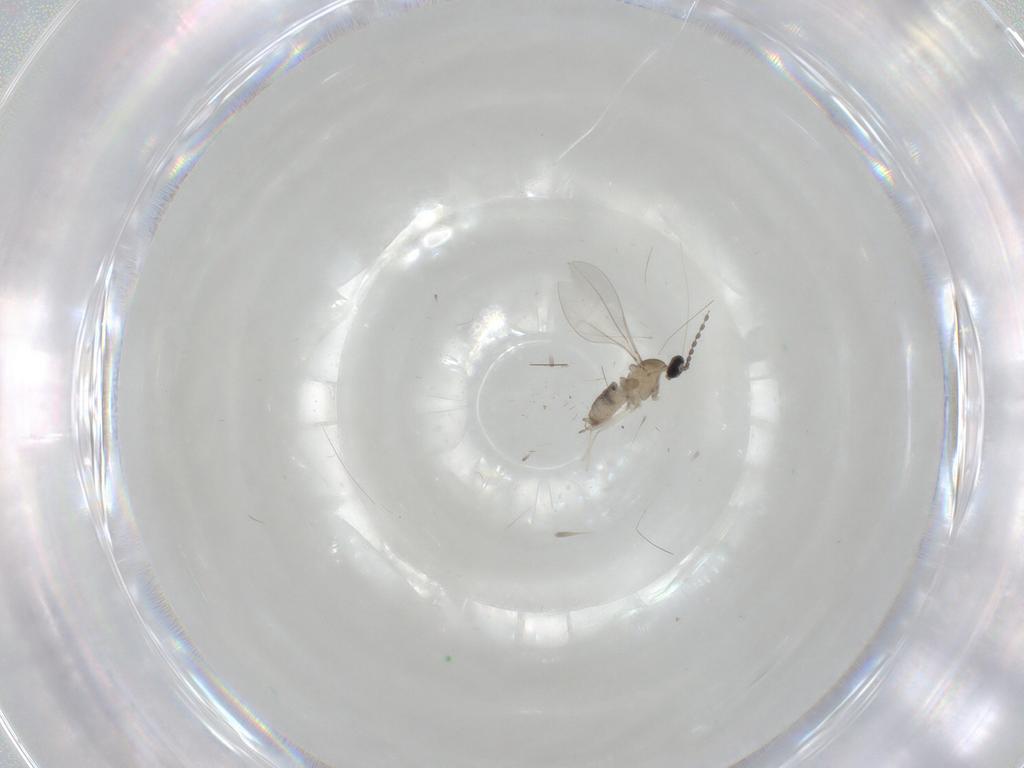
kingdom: Animalia
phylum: Arthropoda
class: Insecta
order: Diptera
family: Cecidomyiidae
